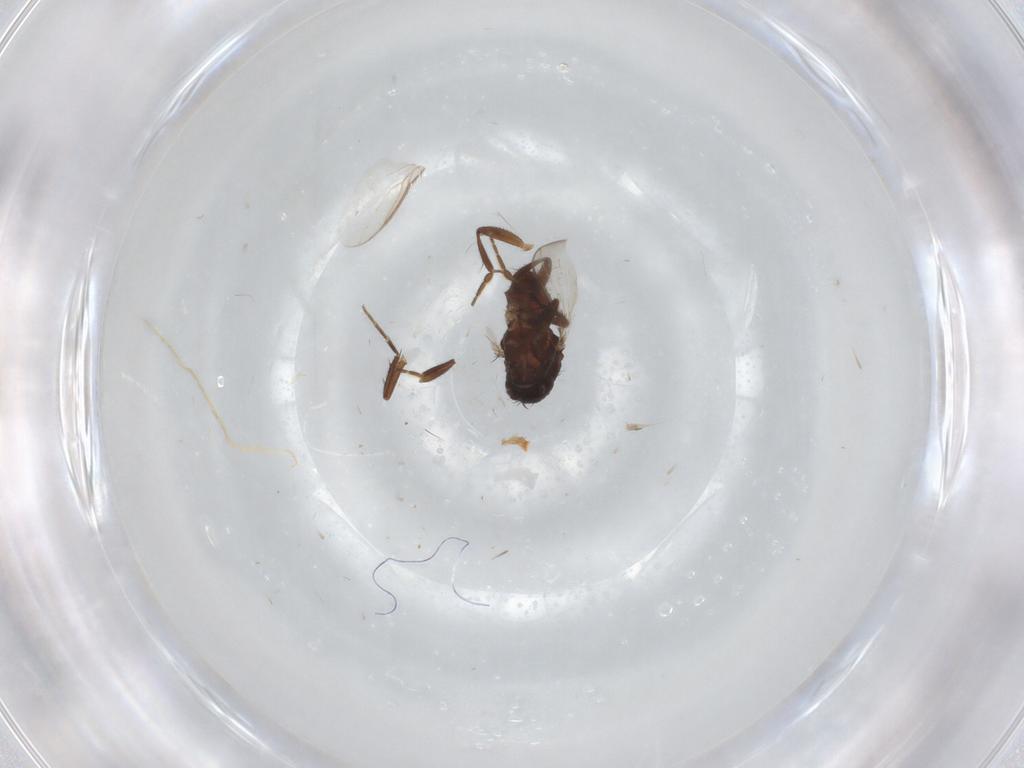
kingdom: Animalia
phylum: Arthropoda
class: Insecta
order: Diptera
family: Sphaeroceridae
